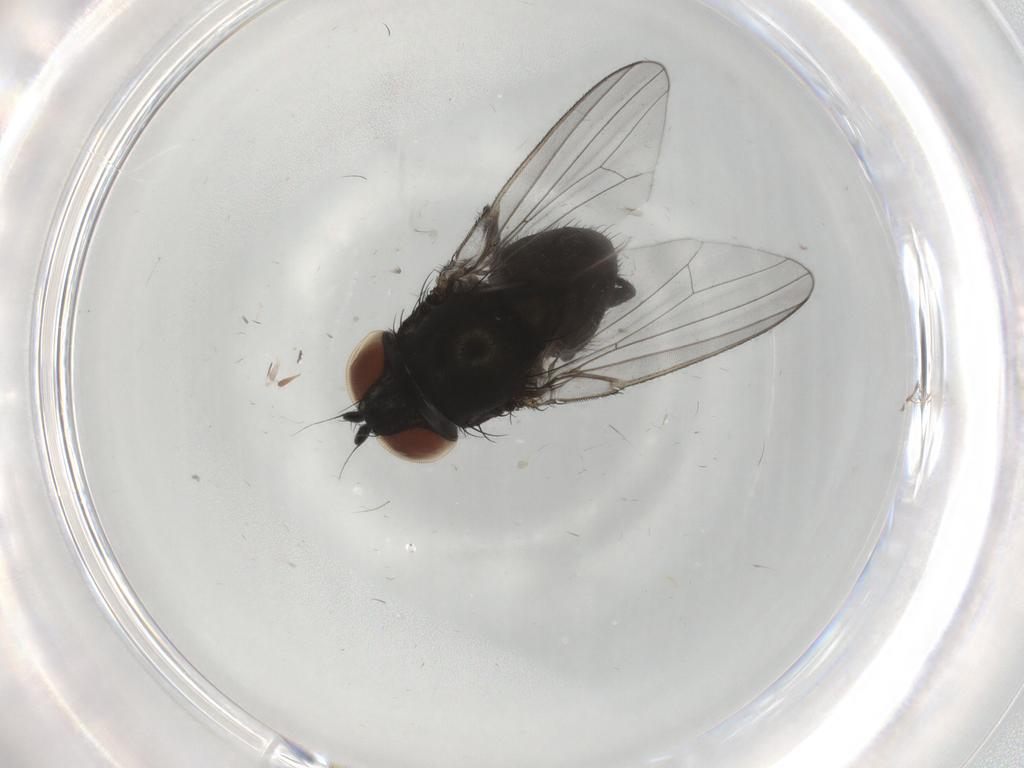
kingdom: Animalia
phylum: Arthropoda
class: Insecta
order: Diptera
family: Milichiidae
